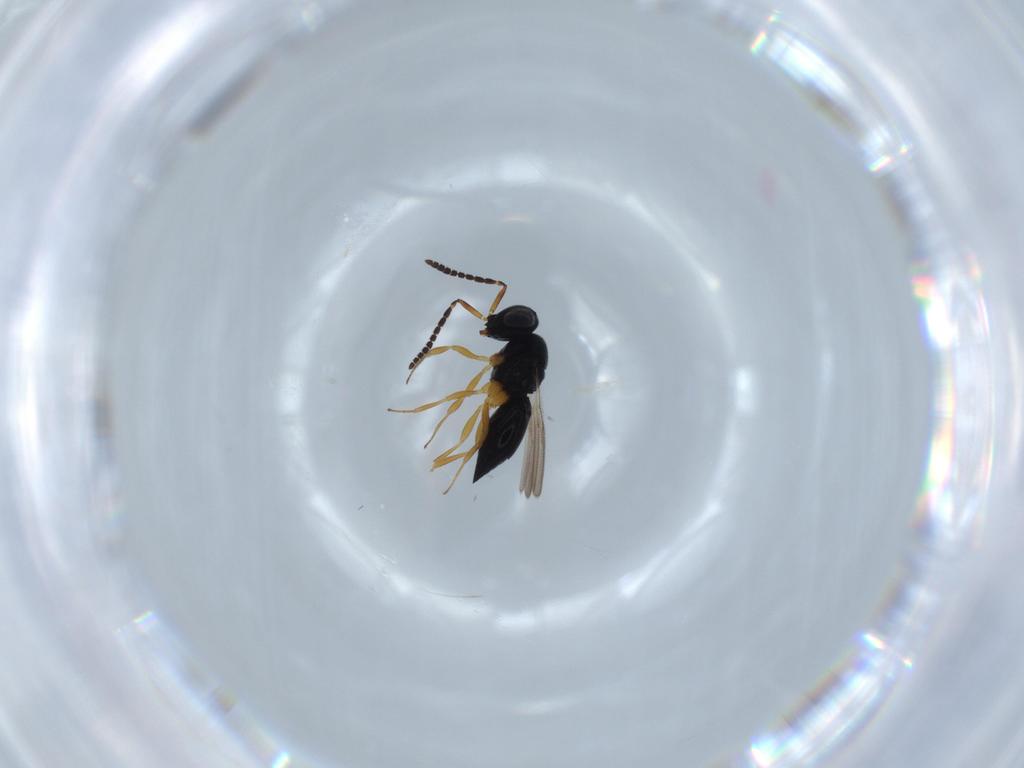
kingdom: Animalia
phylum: Arthropoda
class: Insecta
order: Hymenoptera
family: Scelionidae
